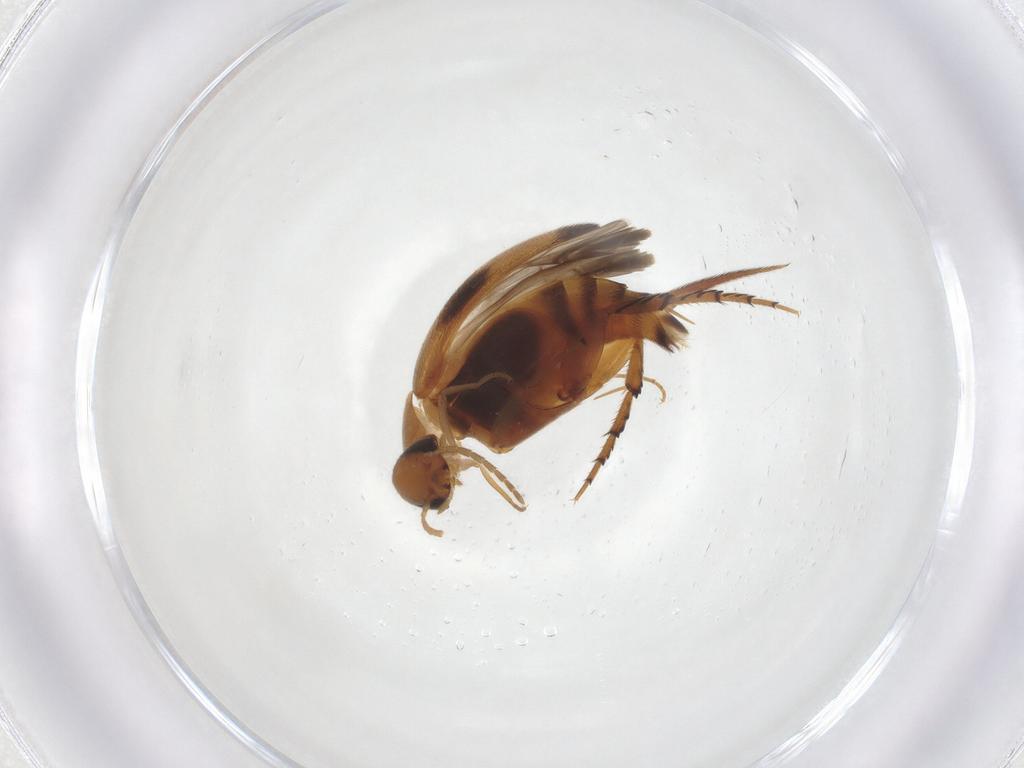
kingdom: Animalia
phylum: Arthropoda
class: Insecta
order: Coleoptera
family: Mordellidae
